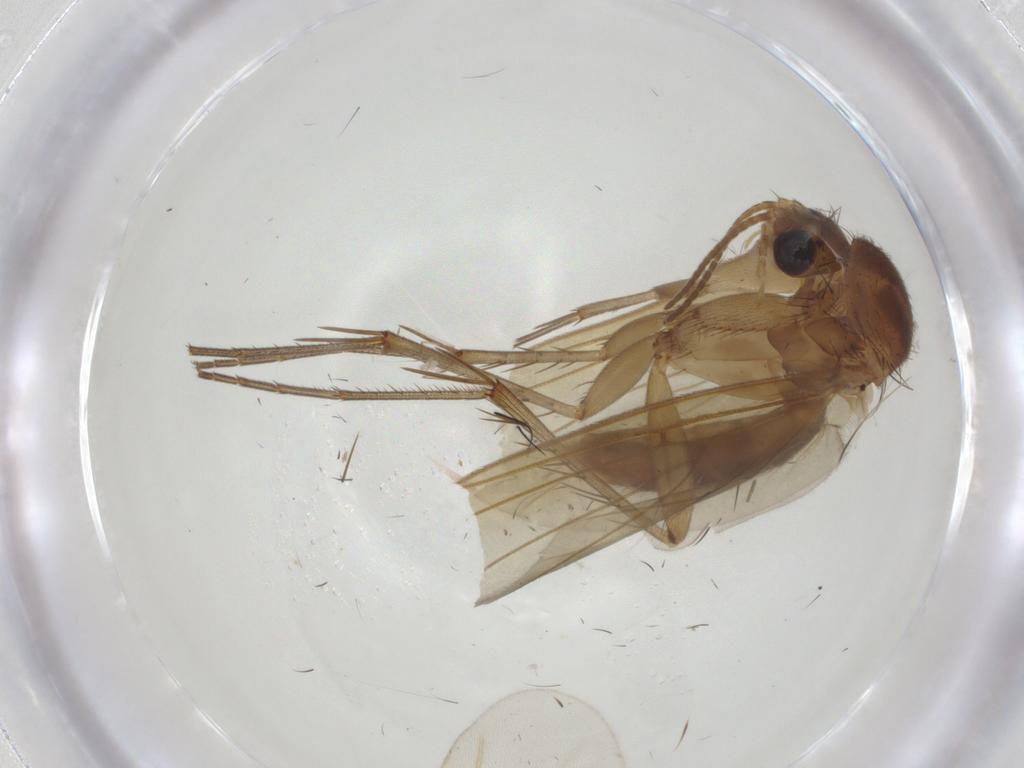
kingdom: Animalia
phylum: Arthropoda
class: Insecta
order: Diptera
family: Mycetophilidae
